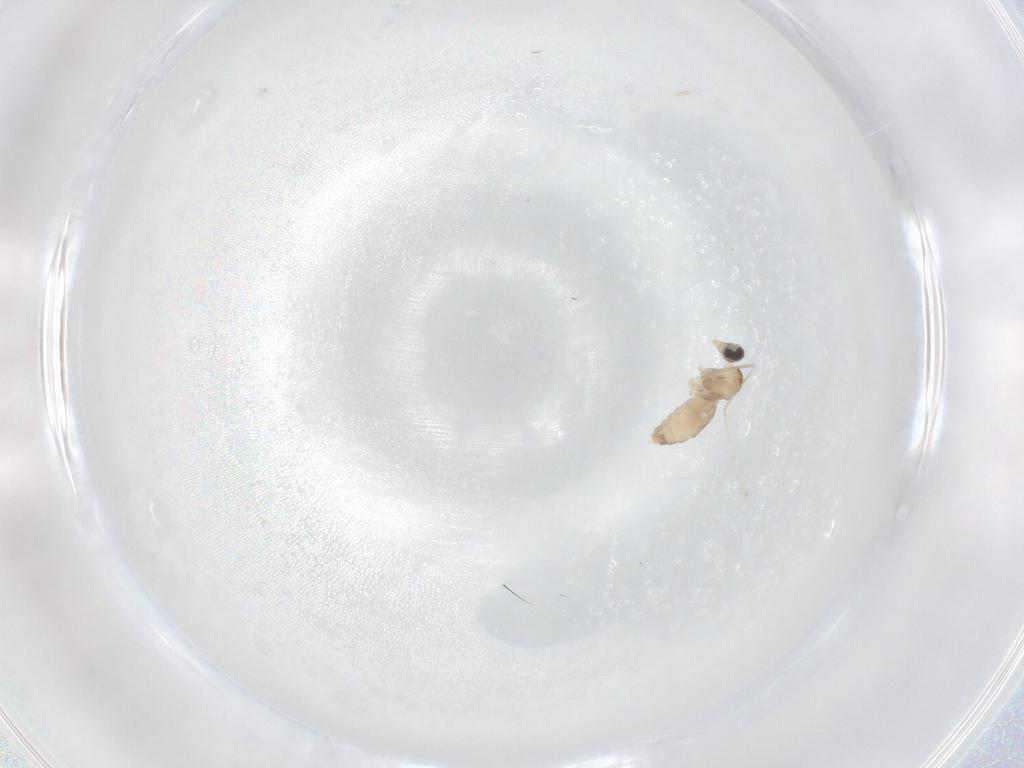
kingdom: Animalia
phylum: Arthropoda
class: Insecta
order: Diptera
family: Cecidomyiidae
